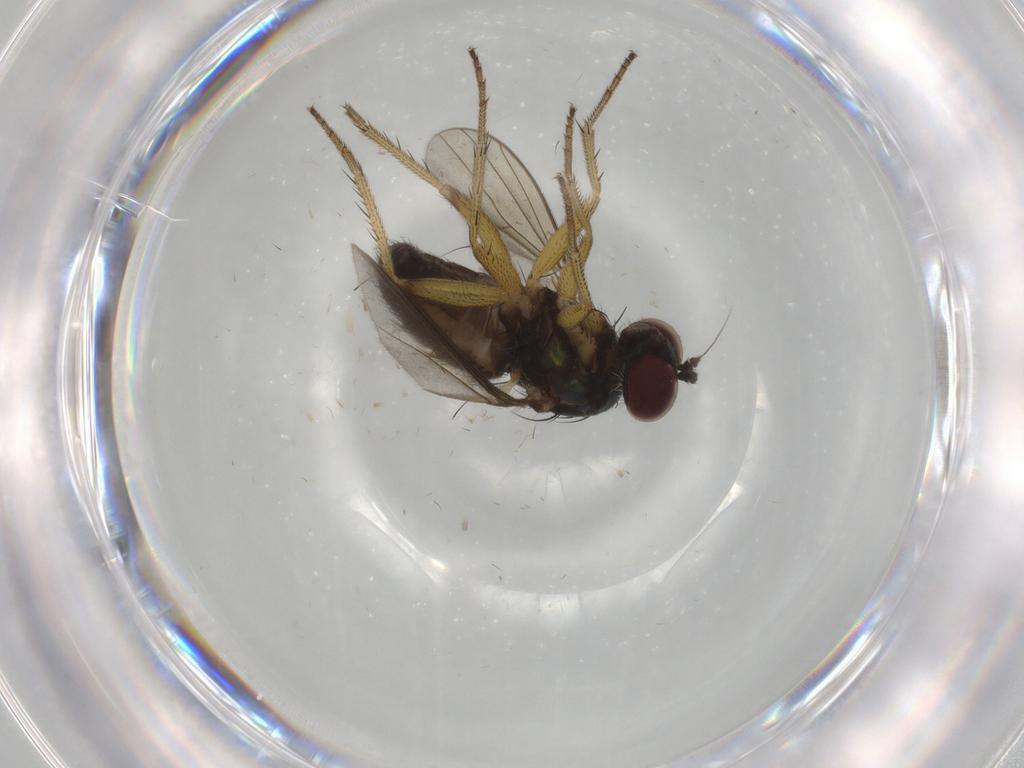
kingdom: Animalia
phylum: Arthropoda
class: Insecta
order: Diptera
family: Dolichopodidae
